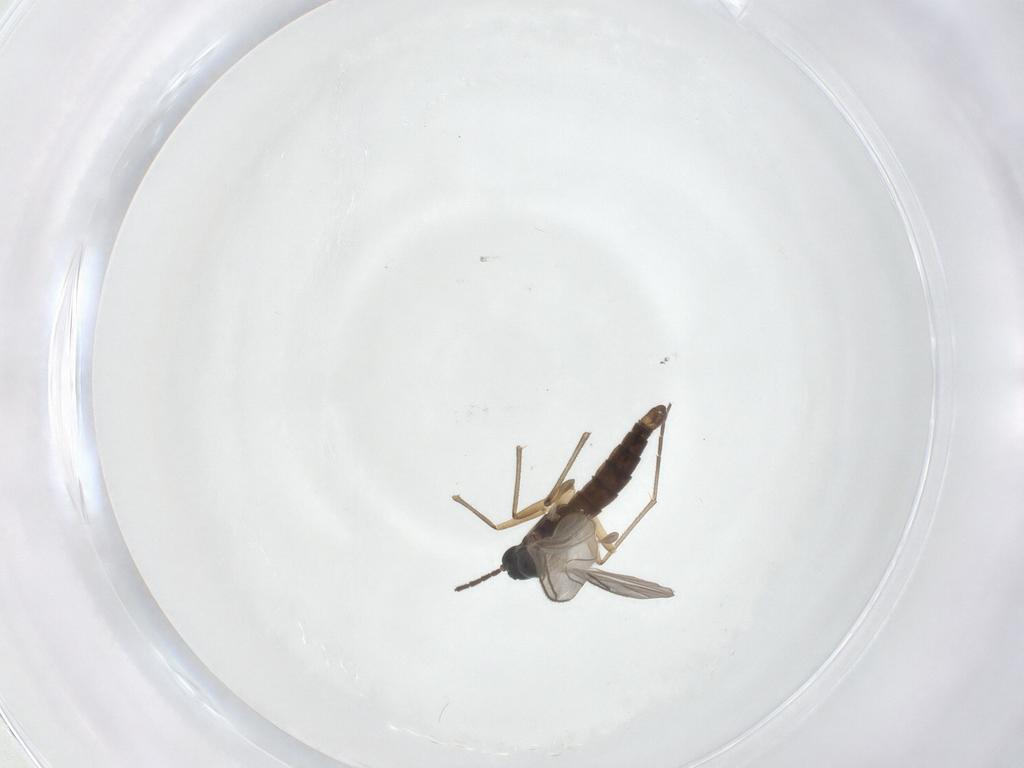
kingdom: Animalia
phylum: Arthropoda
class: Insecta
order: Diptera
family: Sciaridae
